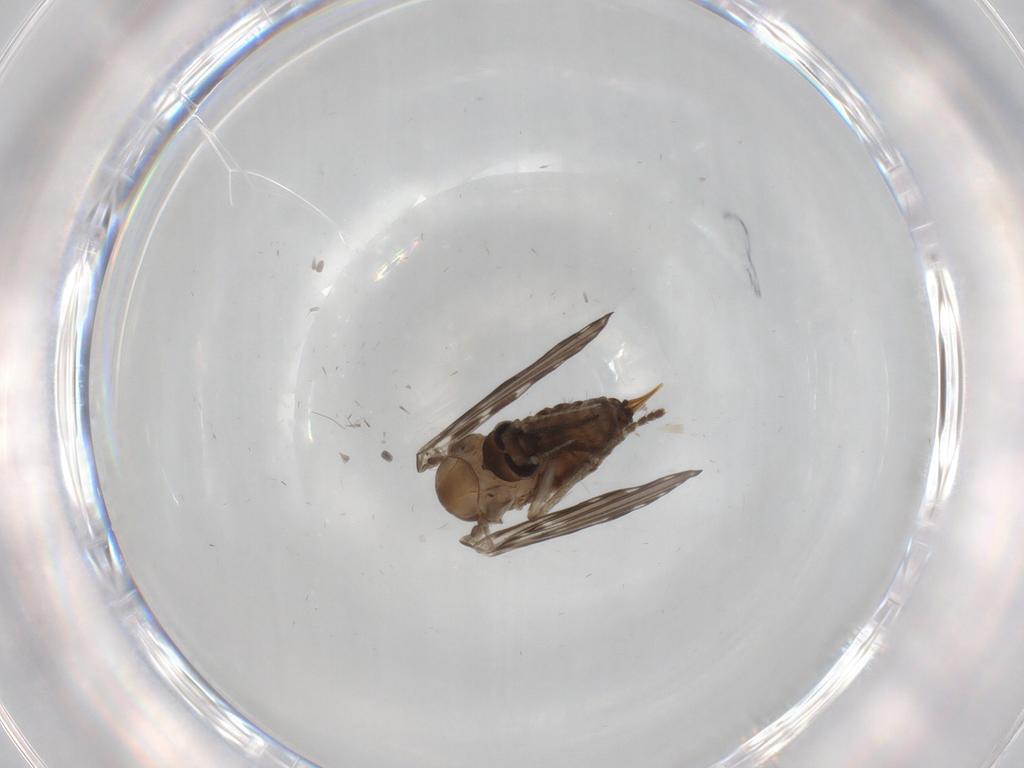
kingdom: Animalia
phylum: Arthropoda
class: Insecta
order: Diptera
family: Psychodidae
